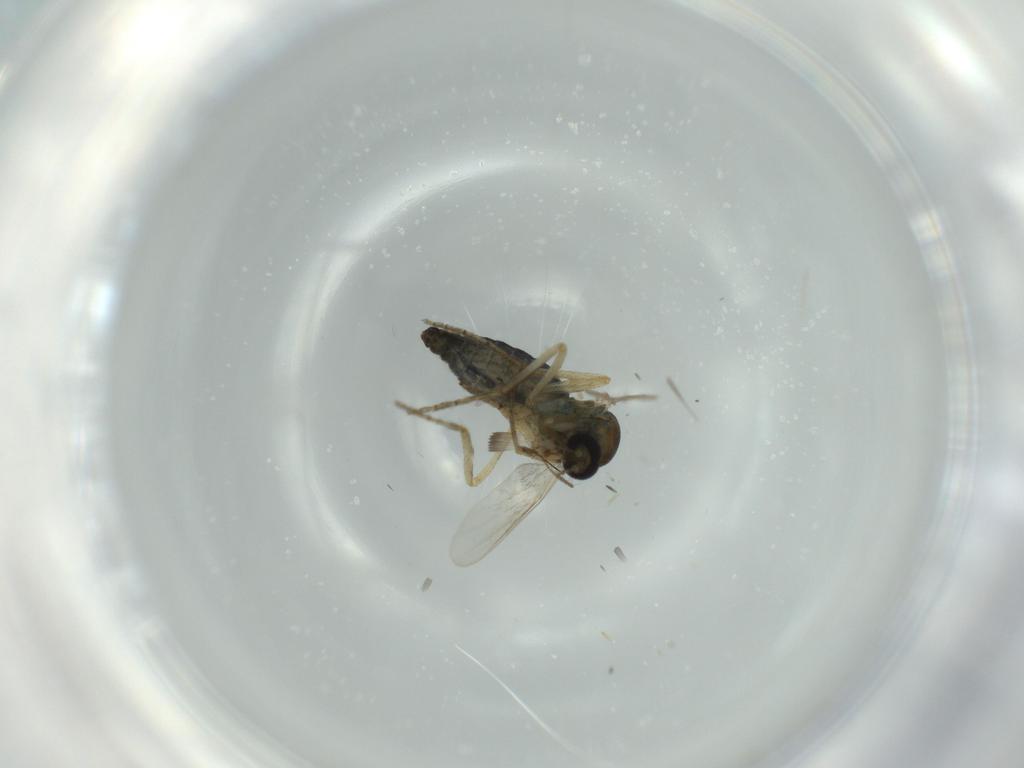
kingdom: Animalia
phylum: Arthropoda
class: Insecta
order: Diptera
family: Ceratopogonidae
